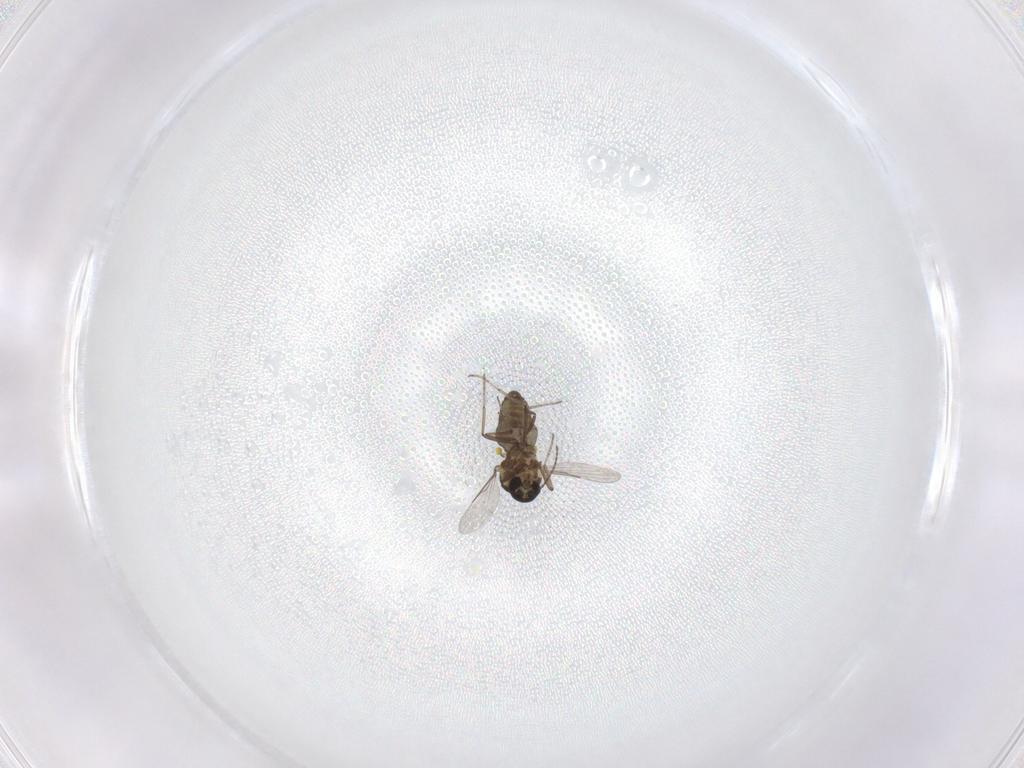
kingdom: Animalia
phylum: Arthropoda
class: Insecta
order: Diptera
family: Ceratopogonidae
